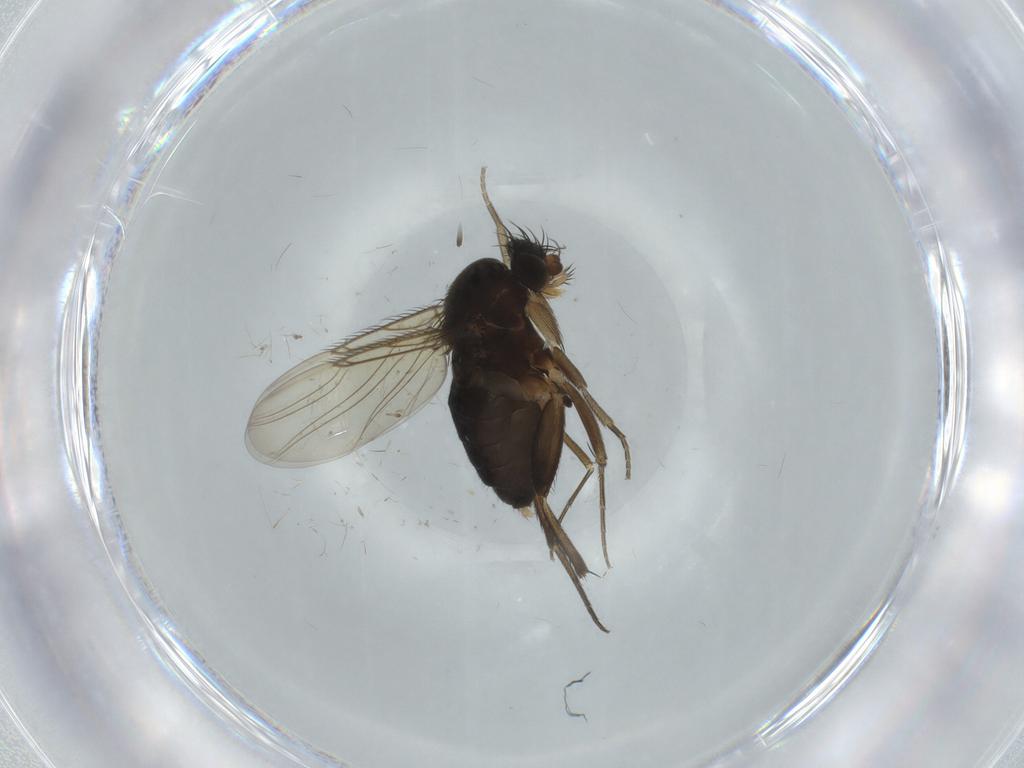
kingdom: Animalia
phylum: Arthropoda
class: Insecta
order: Diptera
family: Phoridae
